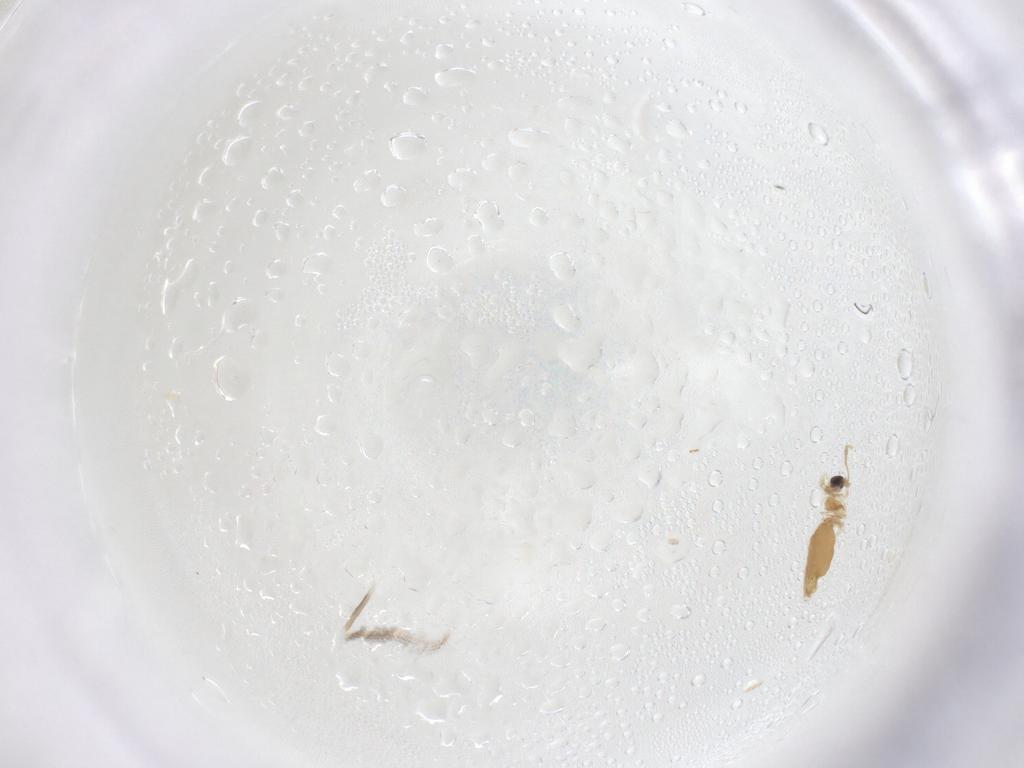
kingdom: Animalia
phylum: Arthropoda
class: Insecta
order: Diptera
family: Ceratopogonidae
